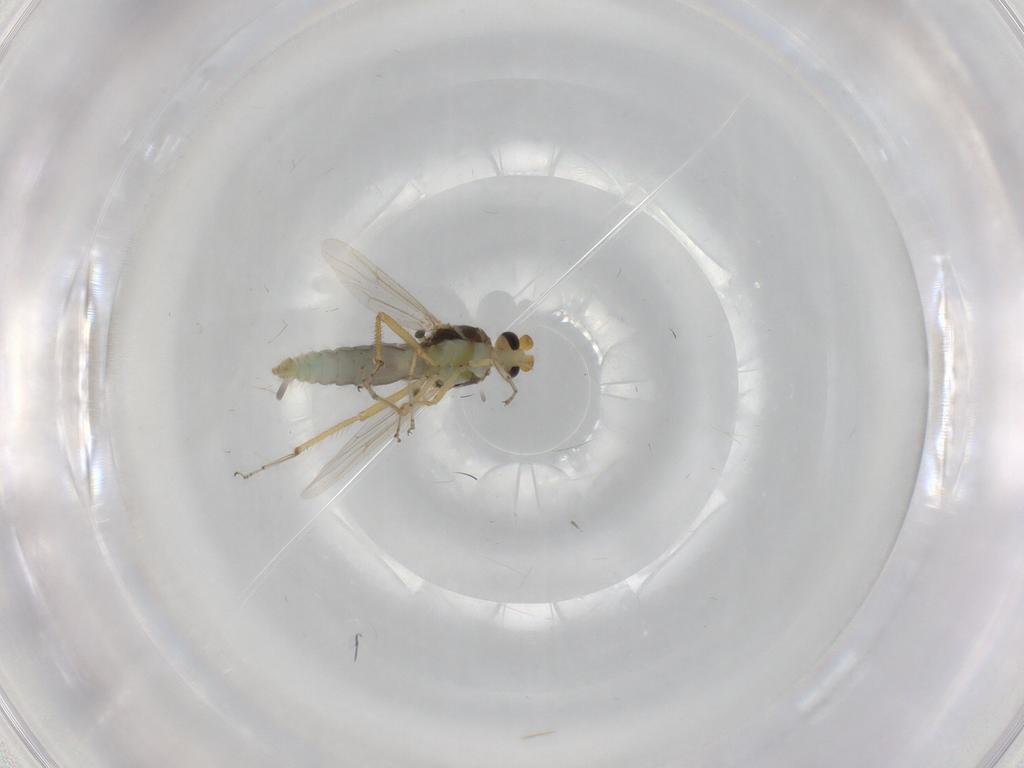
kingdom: Animalia
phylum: Arthropoda
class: Insecta
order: Diptera
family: Ceratopogonidae
